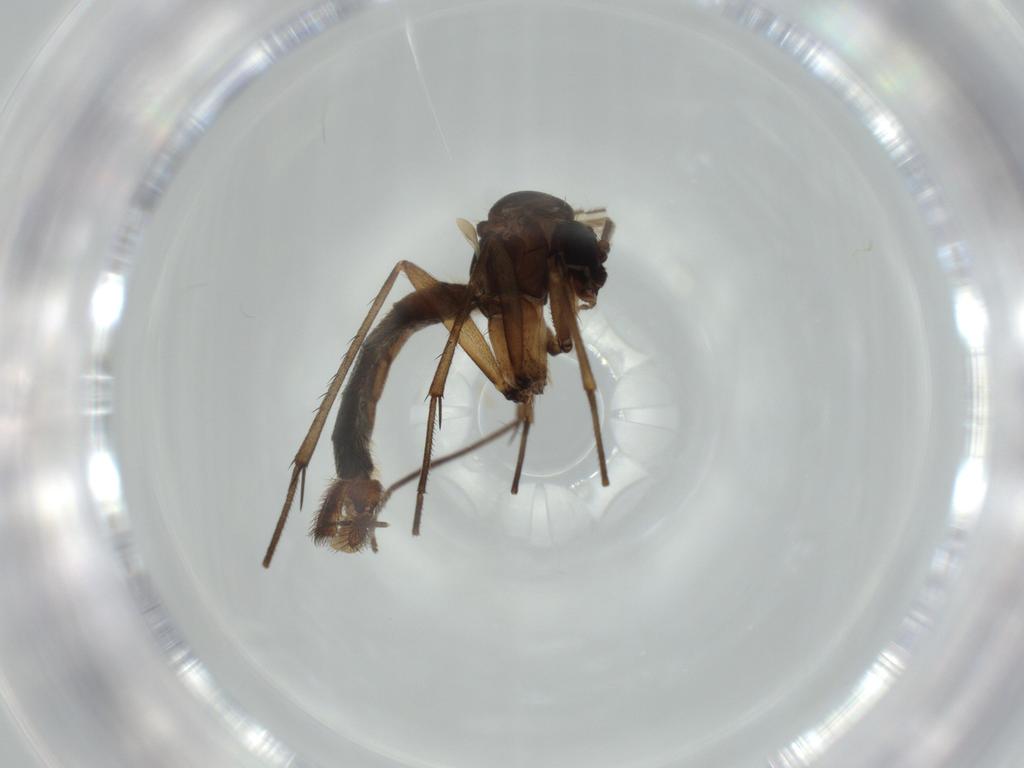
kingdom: Animalia
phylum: Arthropoda
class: Insecta
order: Diptera
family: Mycetophilidae
